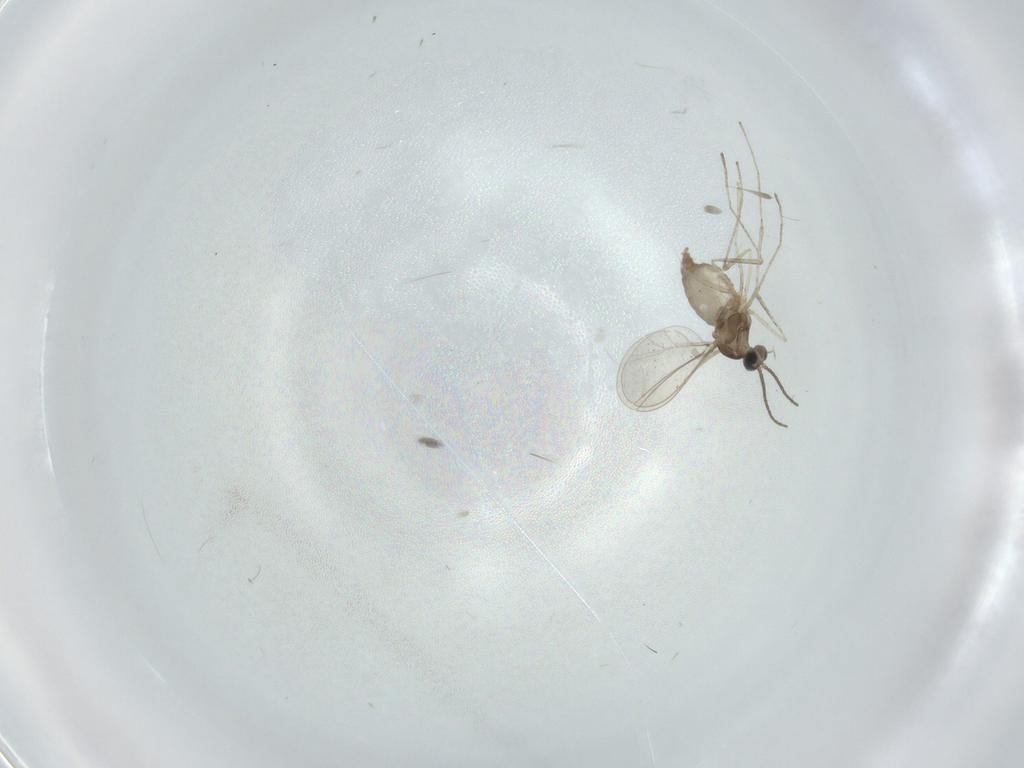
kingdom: Animalia
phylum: Arthropoda
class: Insecta
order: Diptera
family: Cecidomyiidae
